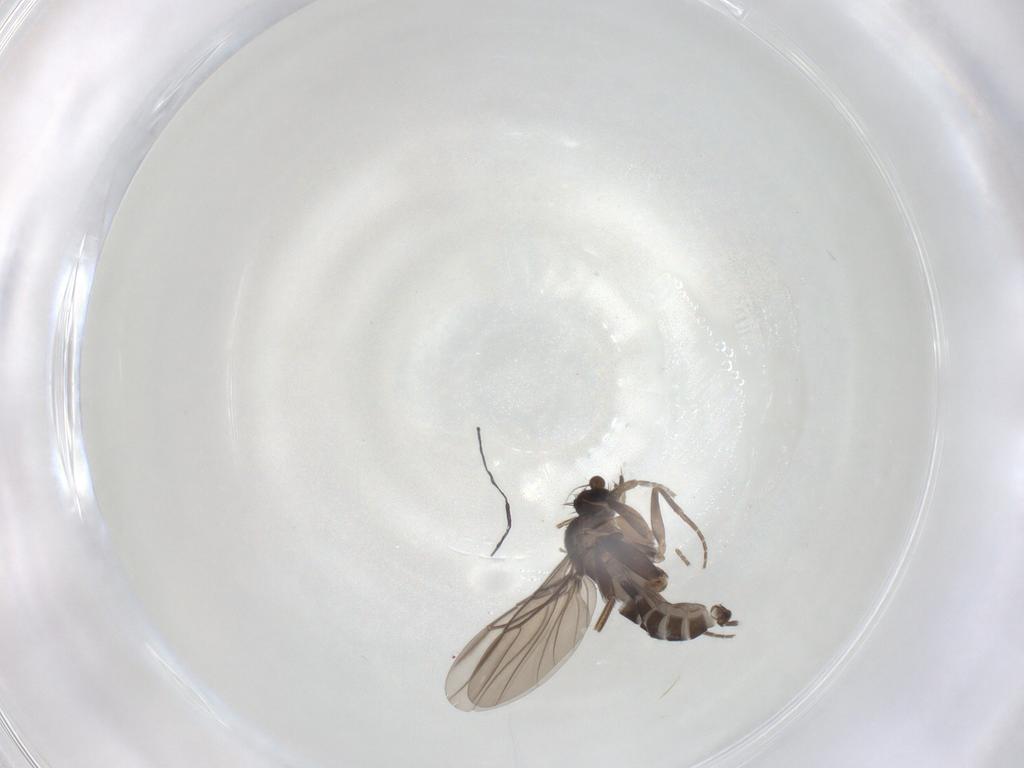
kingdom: Animalia
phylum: Arthropoda
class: Insecta
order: Diptera
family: Phoridae
